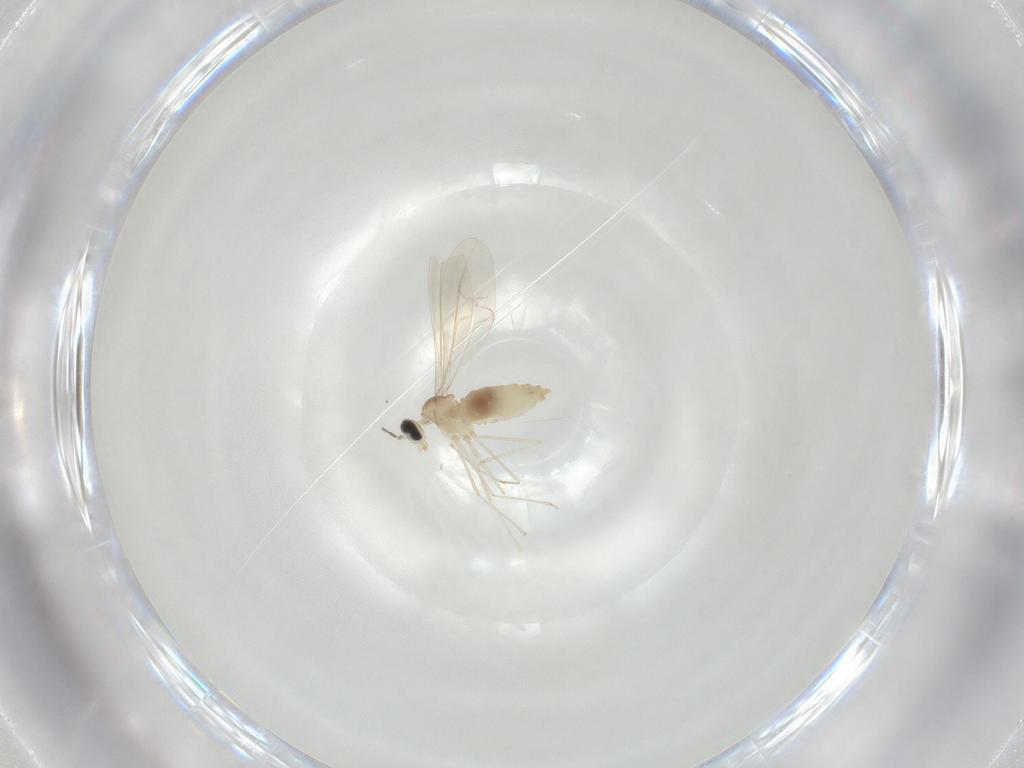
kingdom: Animalia
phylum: Arthropoda
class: Insecta
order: Diptera
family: Cecidomyiidae
